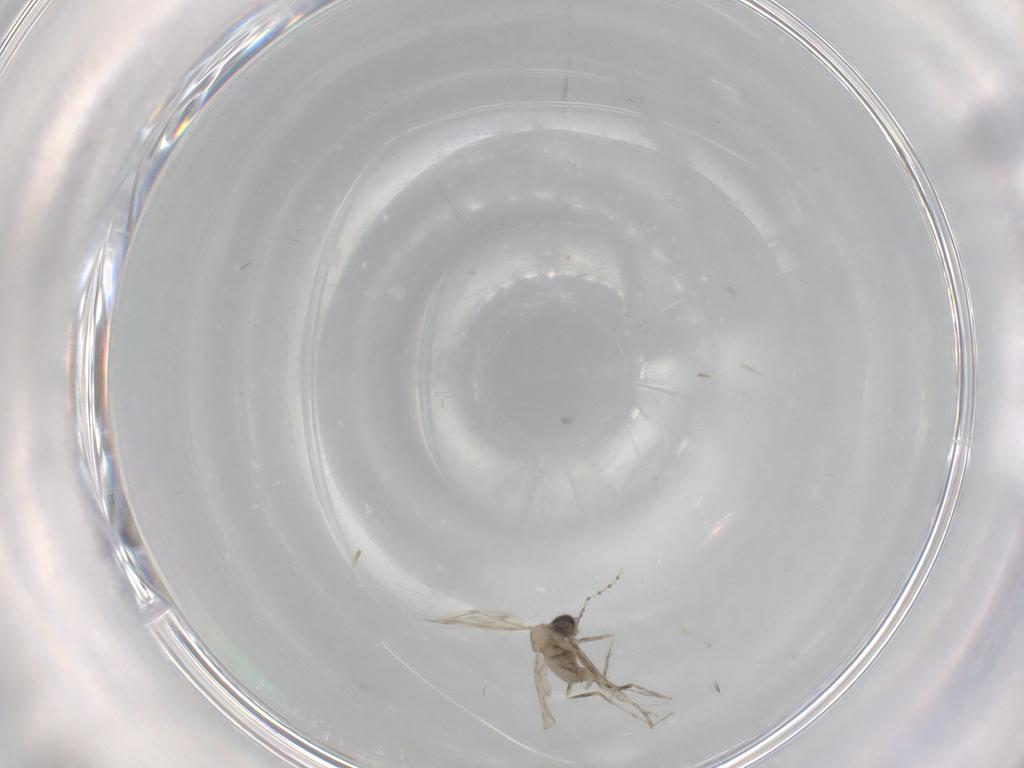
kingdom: Animalia
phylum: Arthropoda
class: Insecta
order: Diptera
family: Cecidomyiidae
